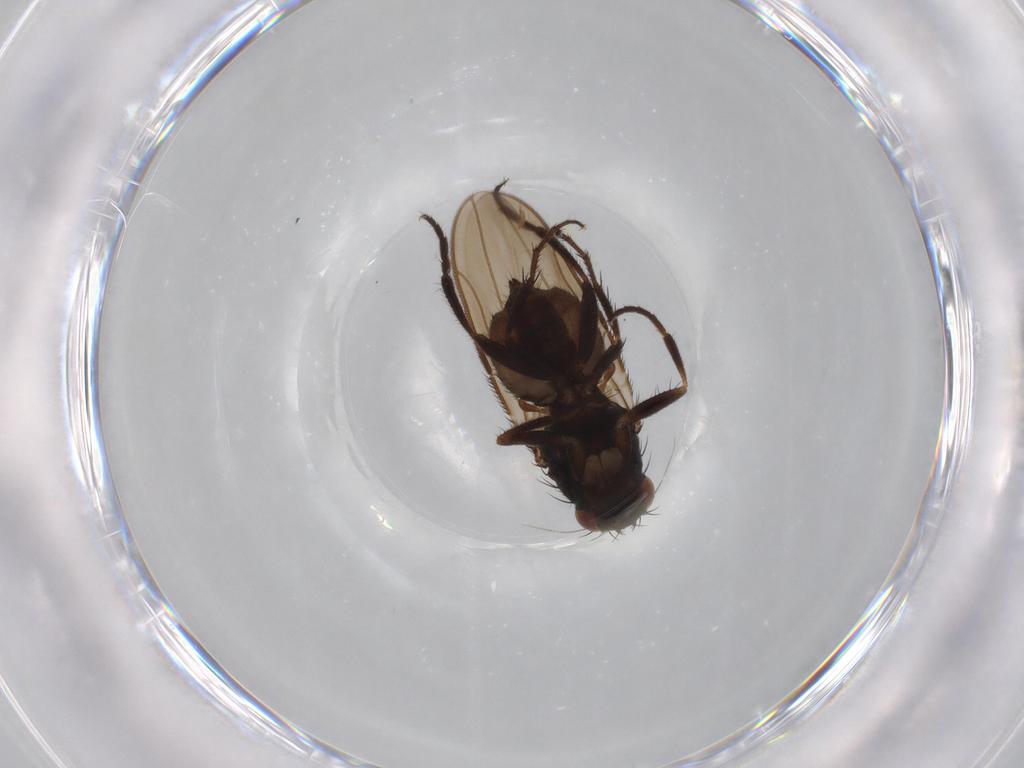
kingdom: Animalia
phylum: Arthropoda
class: Insecta
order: Diptera
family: Sphaeroceridae
